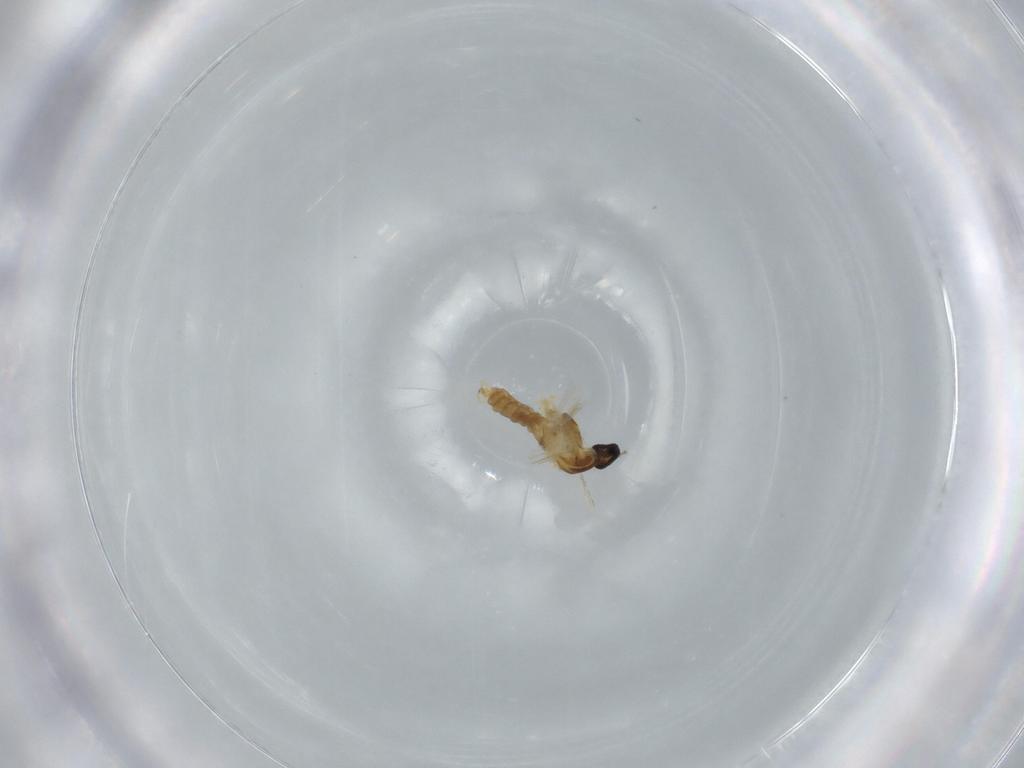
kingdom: Animalia
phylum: Arthropoda
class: Insecta
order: Diptera
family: Cecidomyiidae
